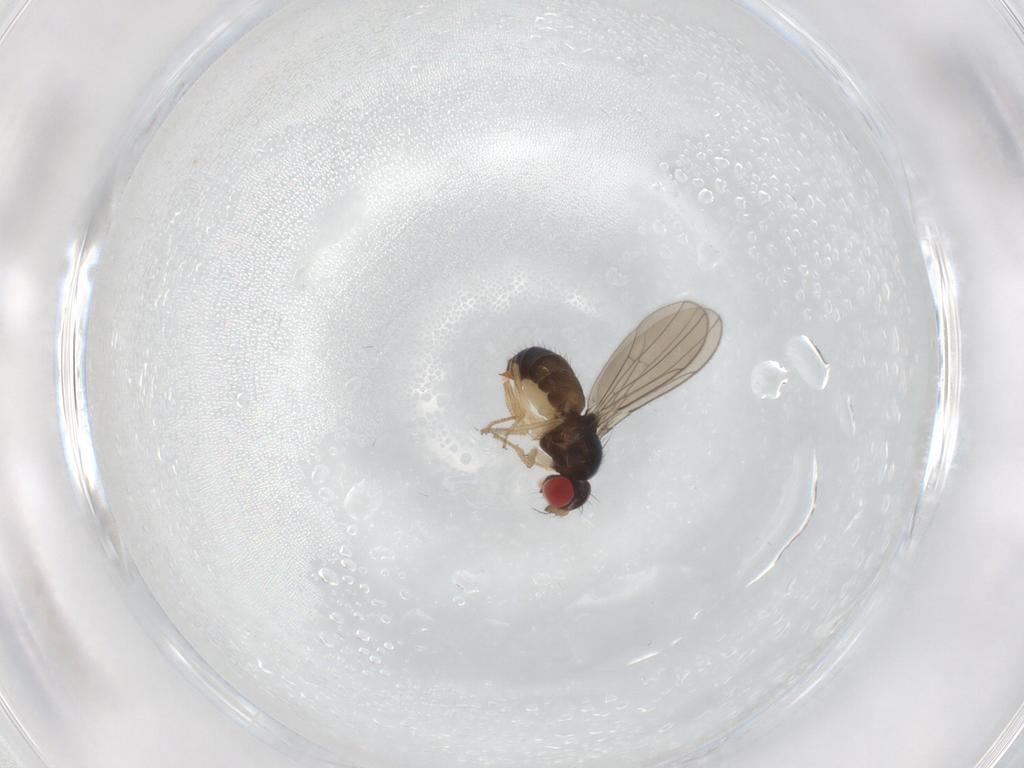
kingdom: Animalia
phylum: Arthropoda
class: Insecta
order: Diptera
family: Drosophilidae
